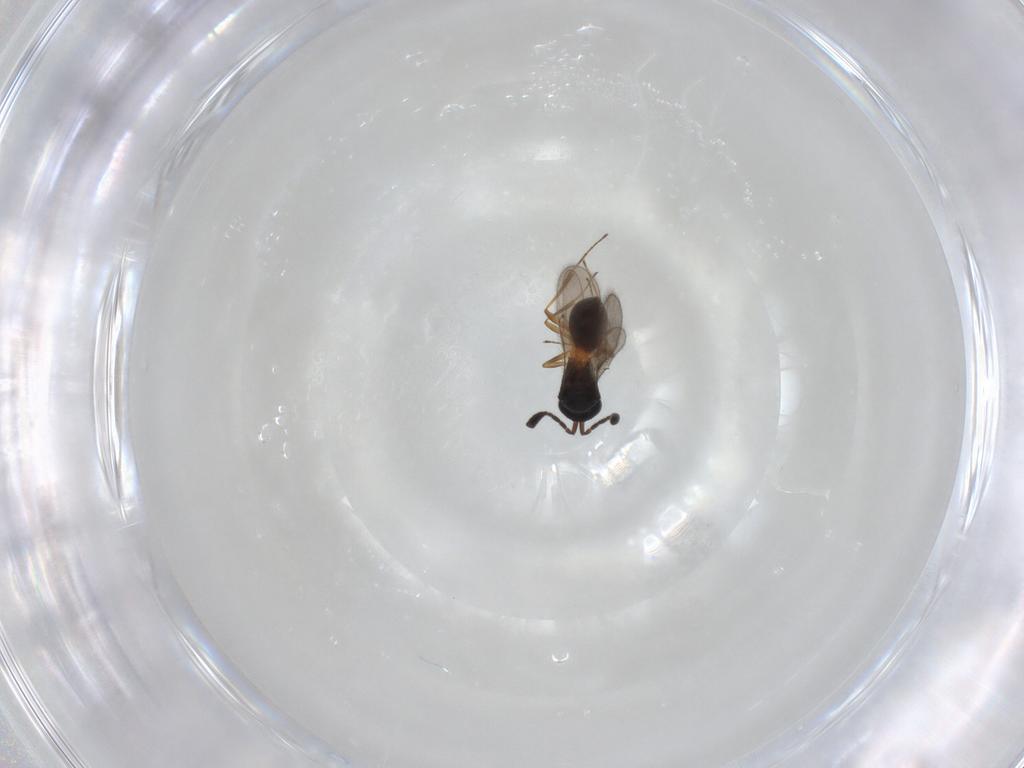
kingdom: Animalia
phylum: Arthropoda
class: Insecta
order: Hymenoptera
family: Scelionidae
